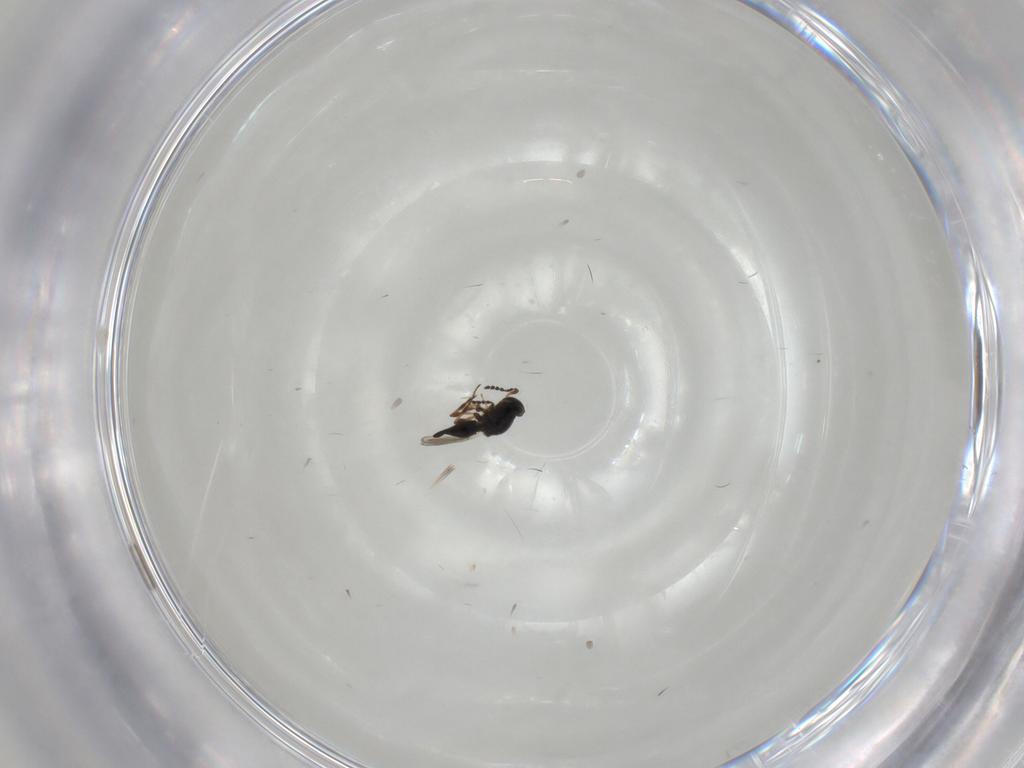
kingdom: Animalia
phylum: Arthropoda
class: Insecta
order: Hymenoptera
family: Platygastridae
